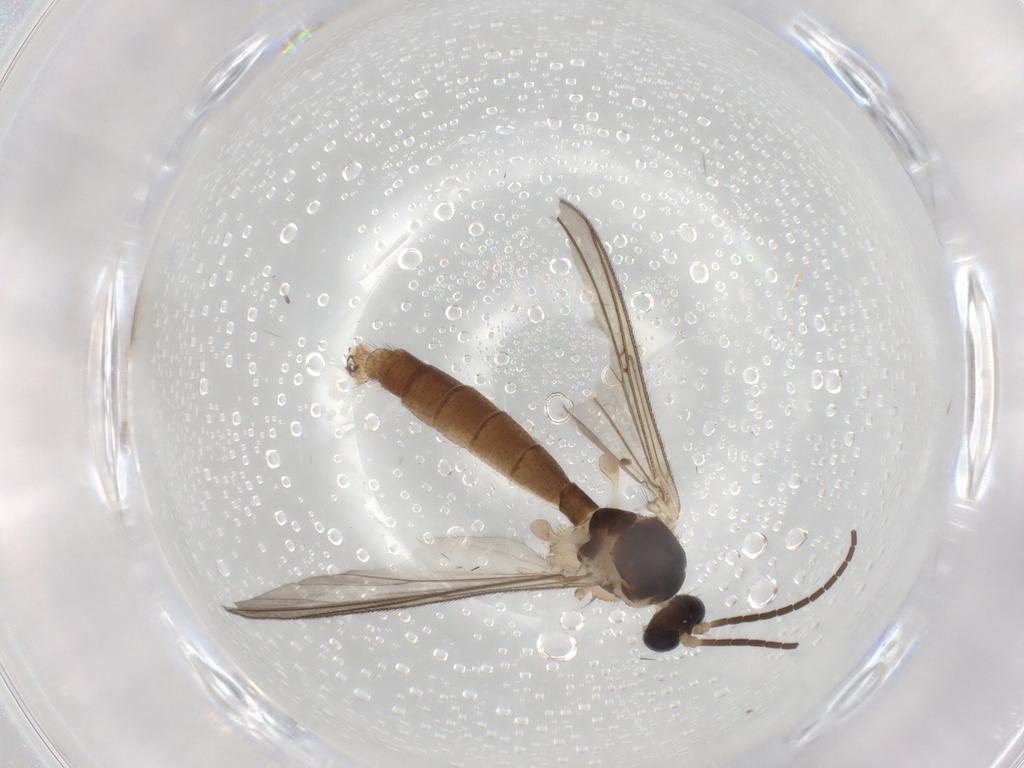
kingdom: Animalia
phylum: Arthropoda
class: Insecta
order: Diptera
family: Cecidomyiidae
